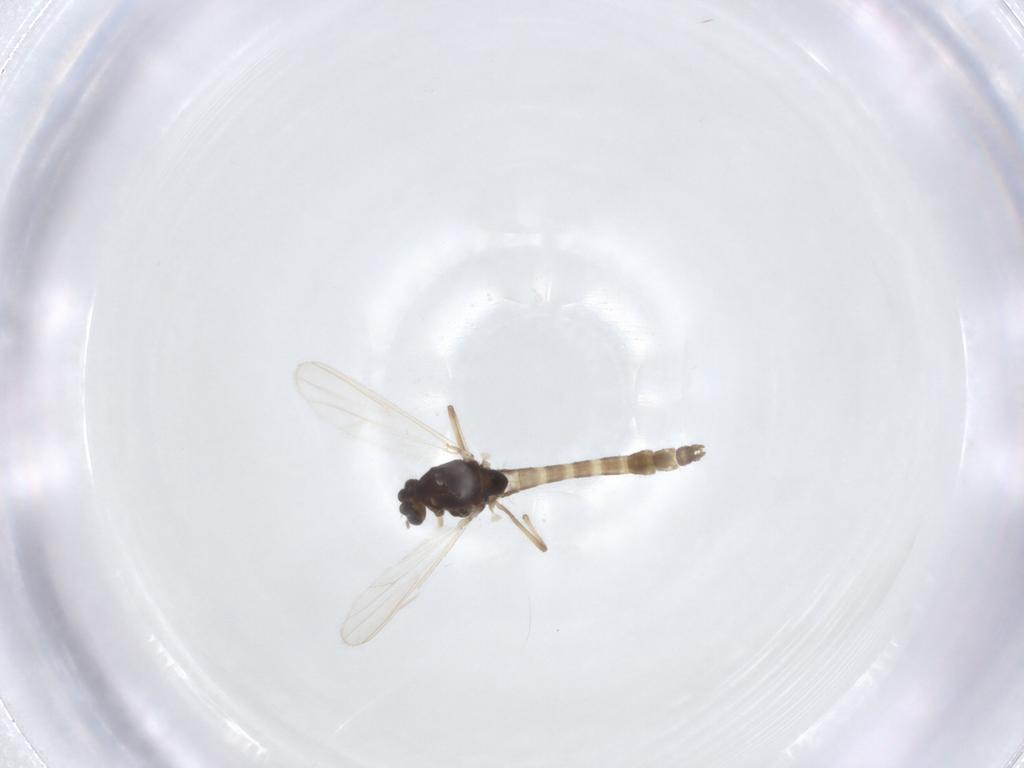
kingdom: Animalia
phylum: Arthropoda
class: Insecta
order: Diptera
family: Chironomidae
